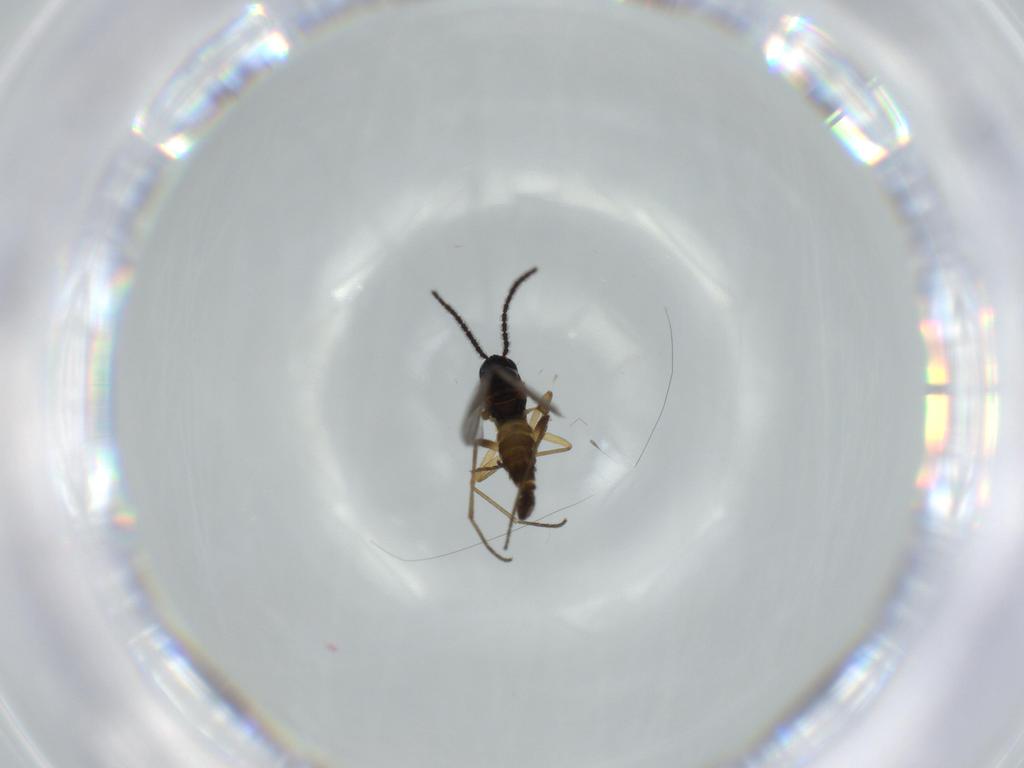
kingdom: Animalia
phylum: Arthropoda
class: Insecta
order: Diptera
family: Sciaridae
